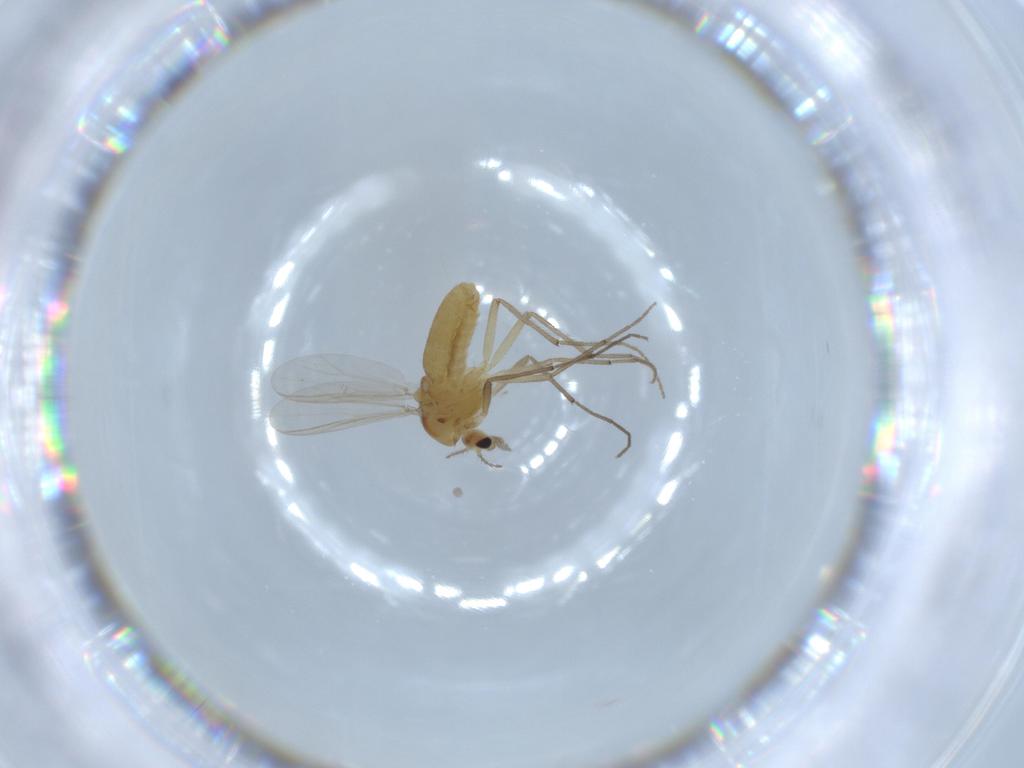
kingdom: Animalia
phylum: Arthropoda
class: Insecta
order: Diptera
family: Chironomidae
